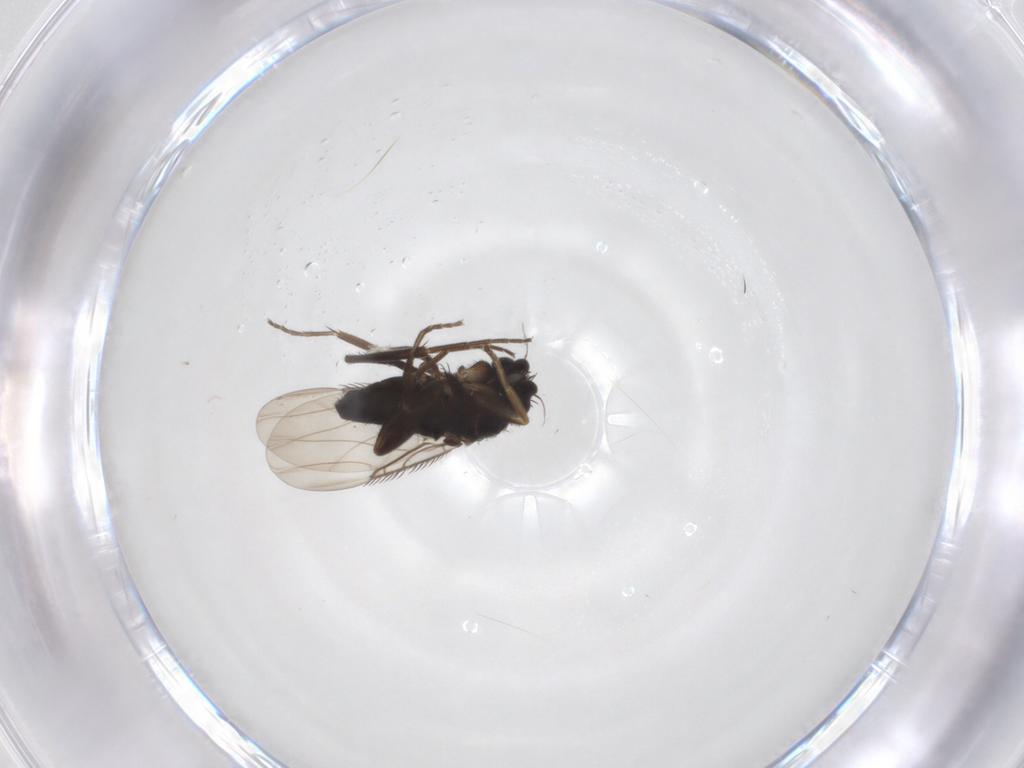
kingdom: Animalia
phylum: Arthropoda
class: Insecta
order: Diptera
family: Phoridae
